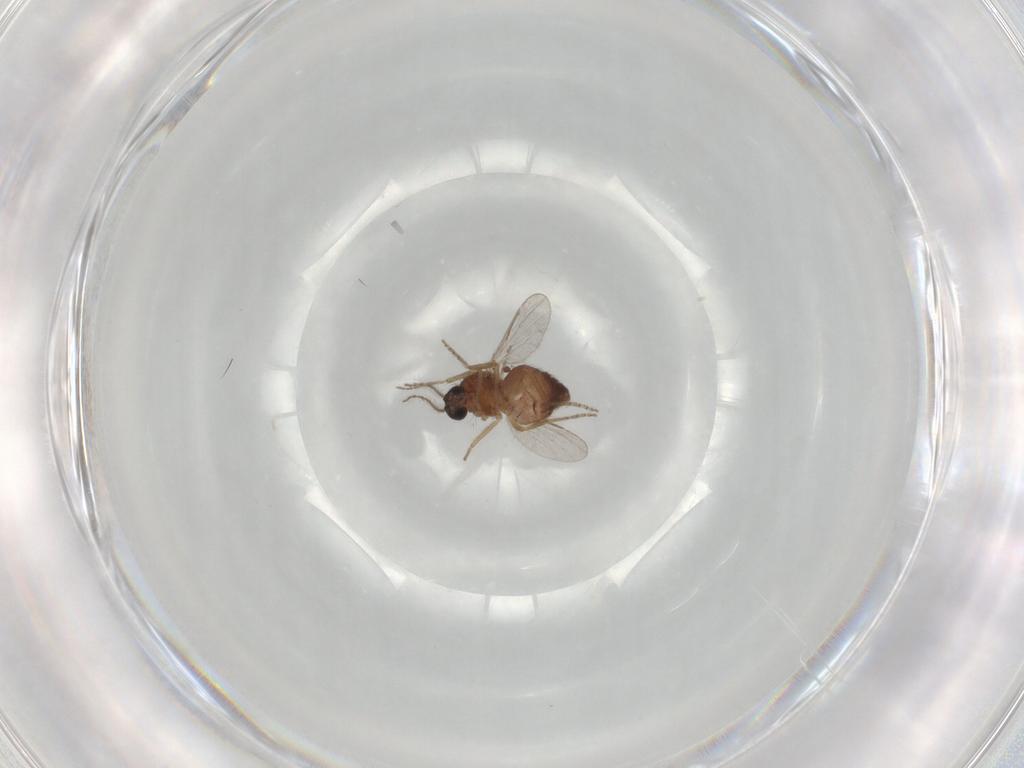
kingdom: Animalia
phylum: Arthropoda
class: Insecta
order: Diptera
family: Ceratopogonidae
